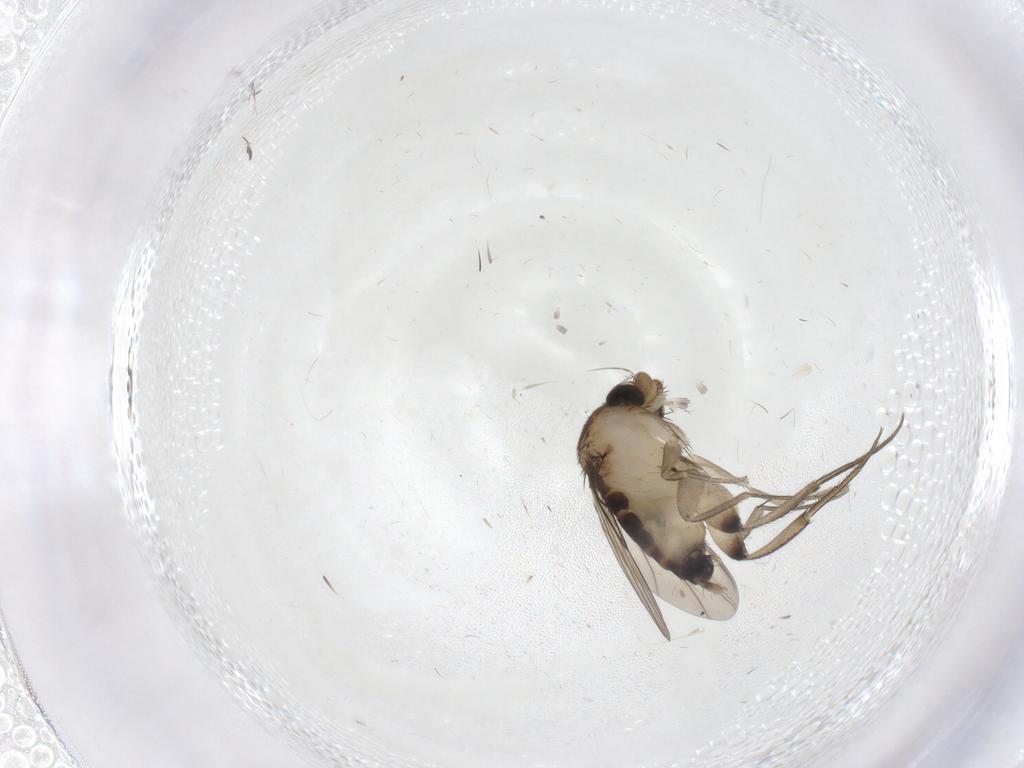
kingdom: Animalia
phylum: Arthropoda
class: Insecta
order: Diptera
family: Phoridae
